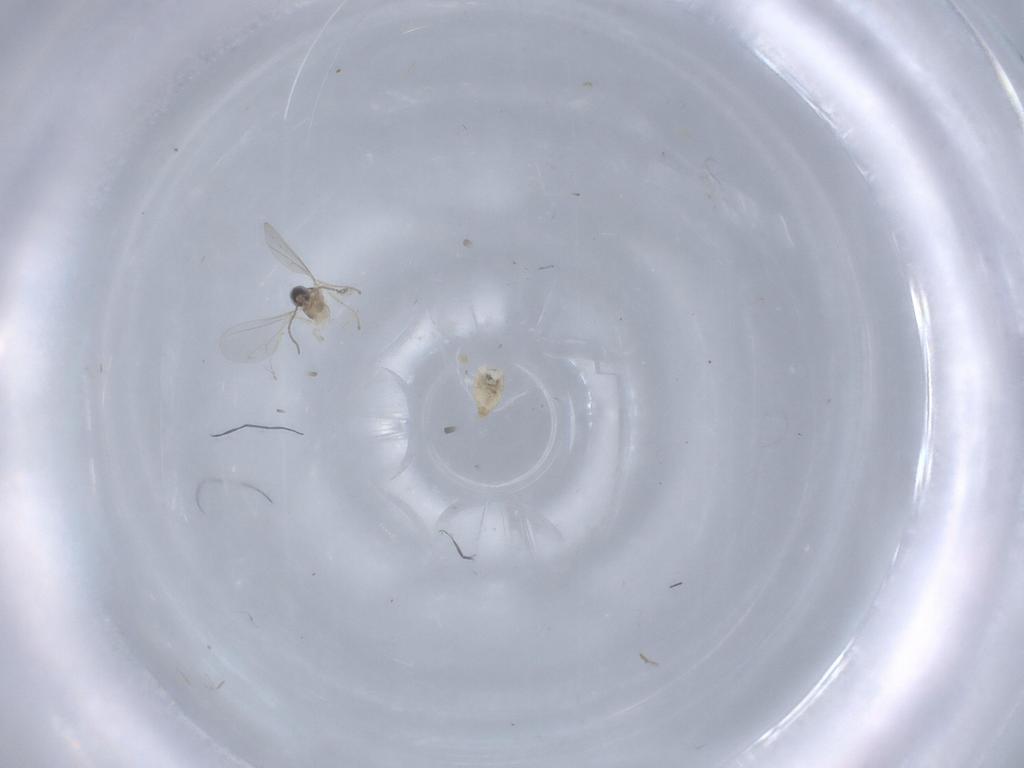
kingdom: Animalia
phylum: Arthropoda
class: Insecta
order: Diptera
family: Cecidomyiidae
